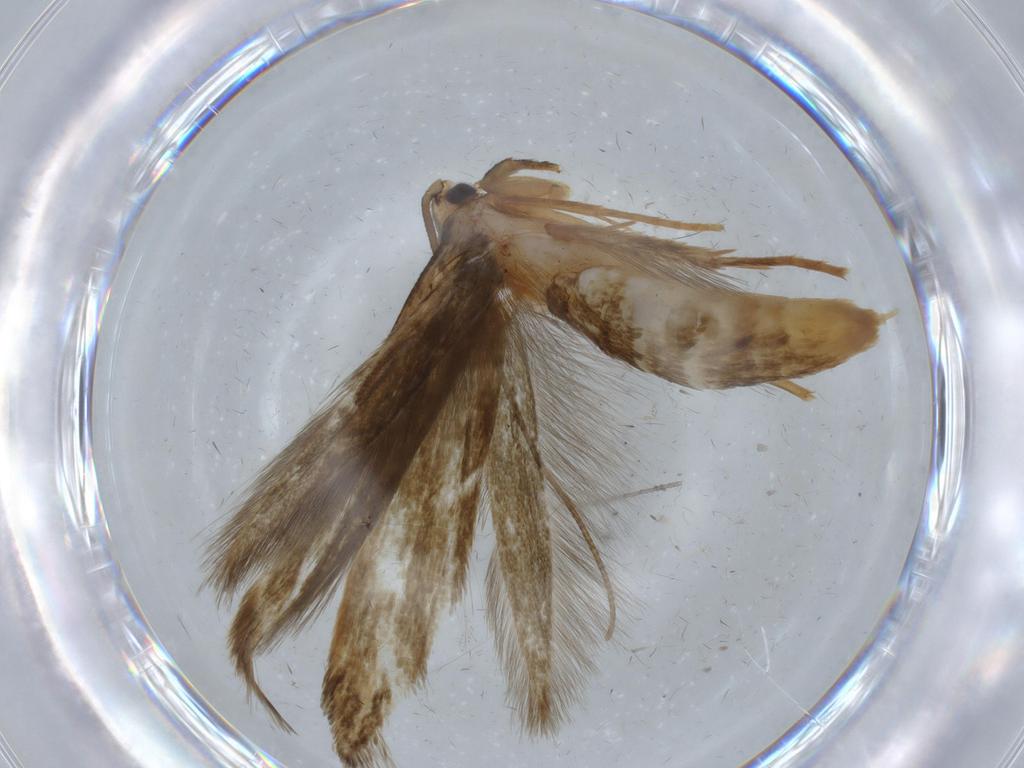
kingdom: Animalia
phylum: Arthropoda
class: Insecta
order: Lepidoptera
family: Tineidae
